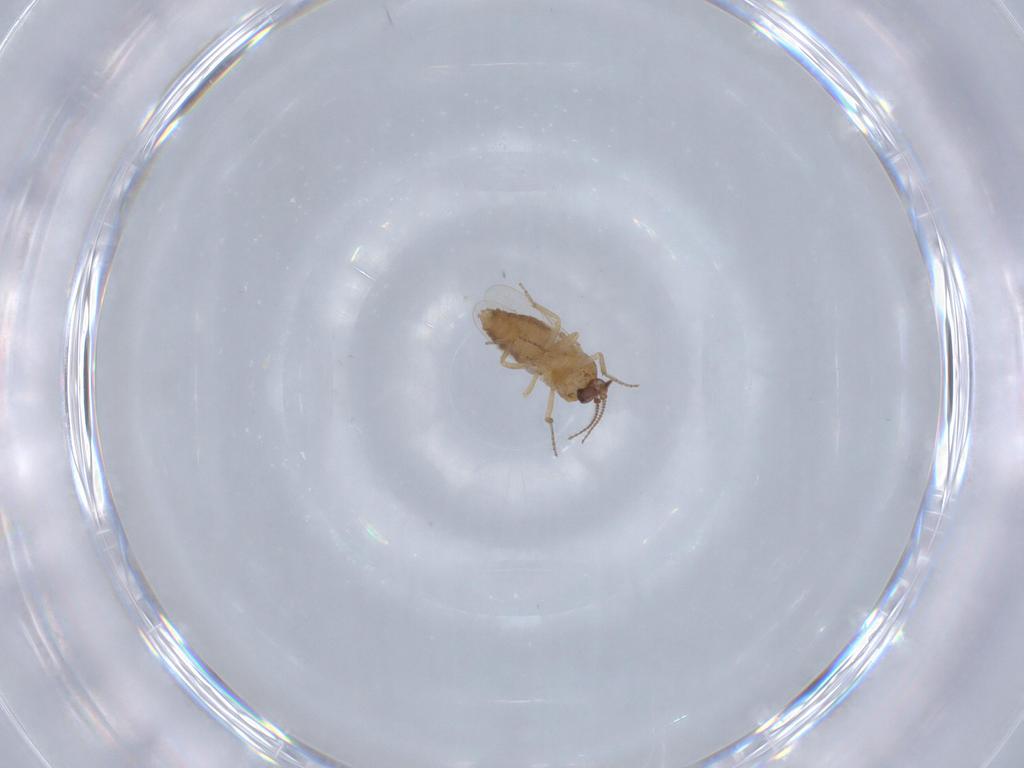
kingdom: Animalia
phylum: Arthropoda
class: Insecta
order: Diptera
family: Ceratopogonidae
